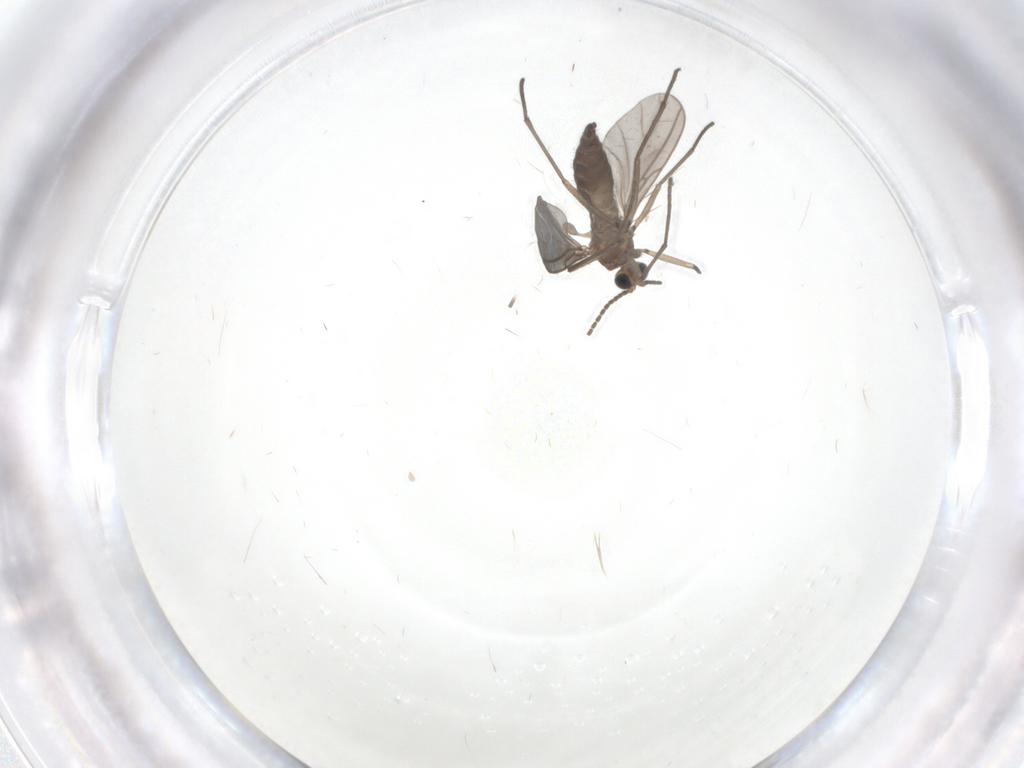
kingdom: Animalia
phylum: Arthropoda
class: Insecta
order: Diptera
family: Sciaridae
